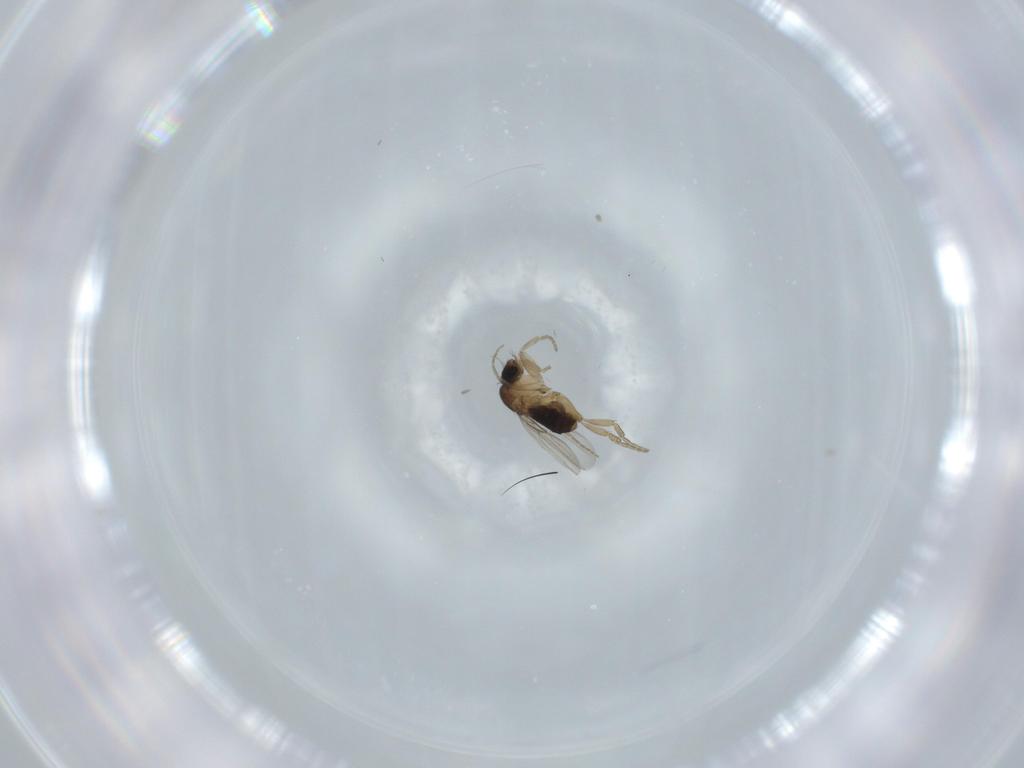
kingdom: Animalia
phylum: Arthropoda
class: Insecta
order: Diptera
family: Phoridae
